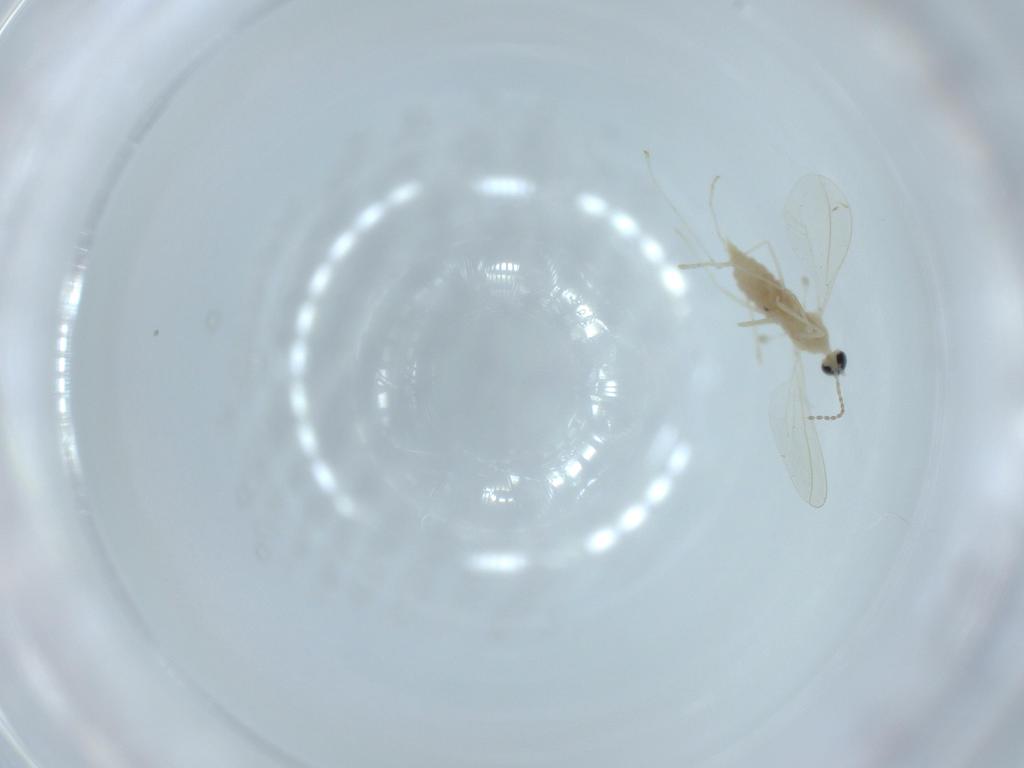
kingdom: Animalia
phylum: Arthropoda
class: Insecta
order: Diptera
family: Cecidomyiidae
